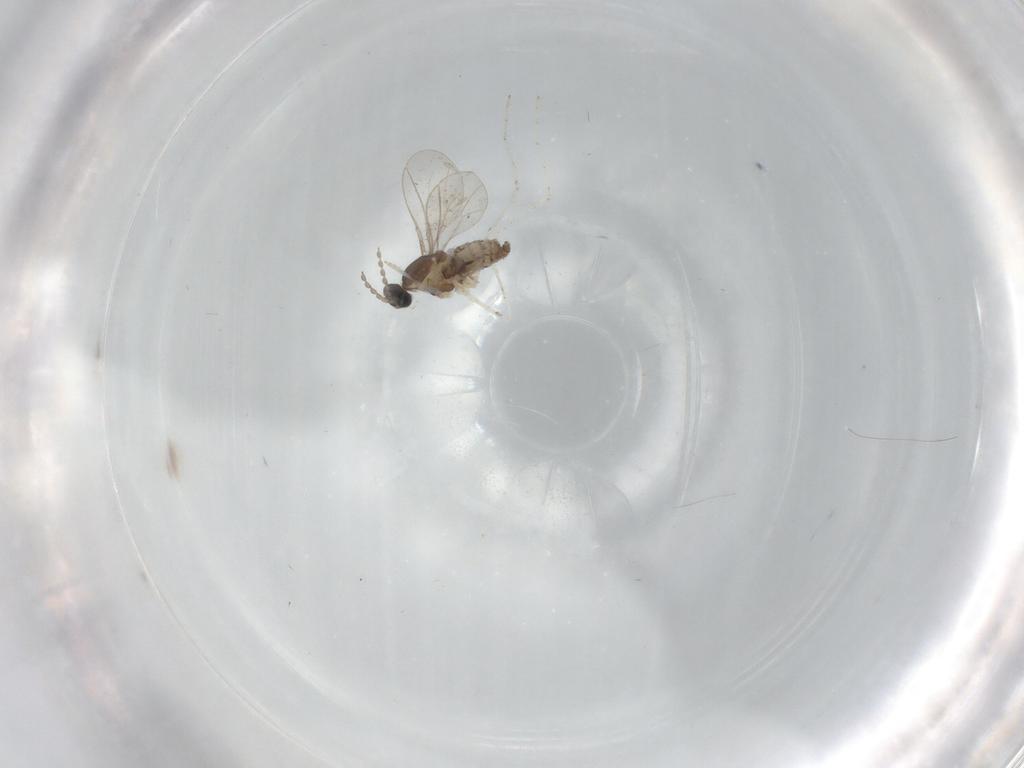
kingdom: Animalia
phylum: Arthropoda
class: Insecta
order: Diptera
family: Cecidomyiidae
